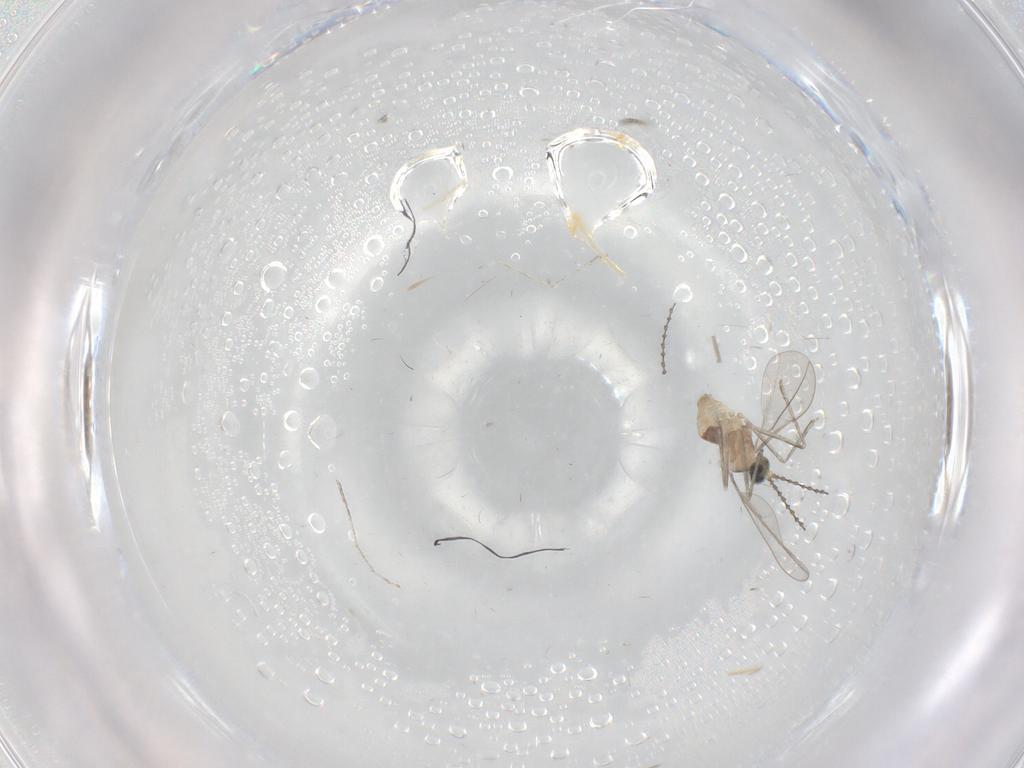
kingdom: Animalia
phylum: Arthropoda
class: Insecta
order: Diptera
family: Cecidomyiidae
